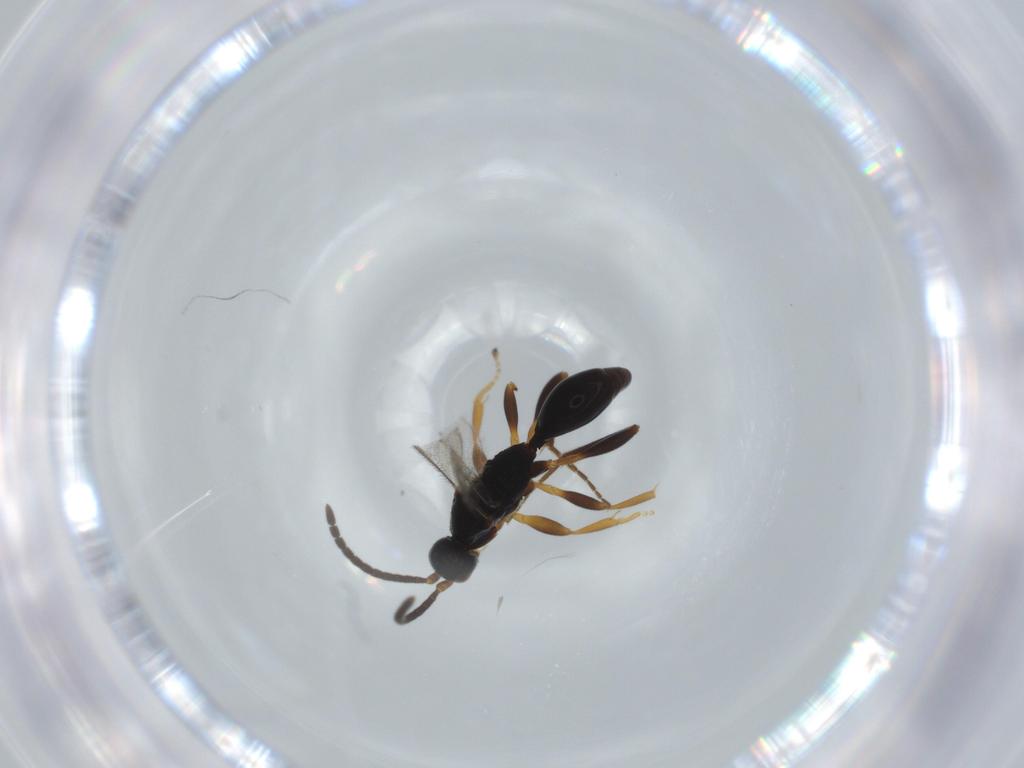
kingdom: Animalia
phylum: Arthropoda
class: Insecta
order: Hymenoptera
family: Proctotrupidae
